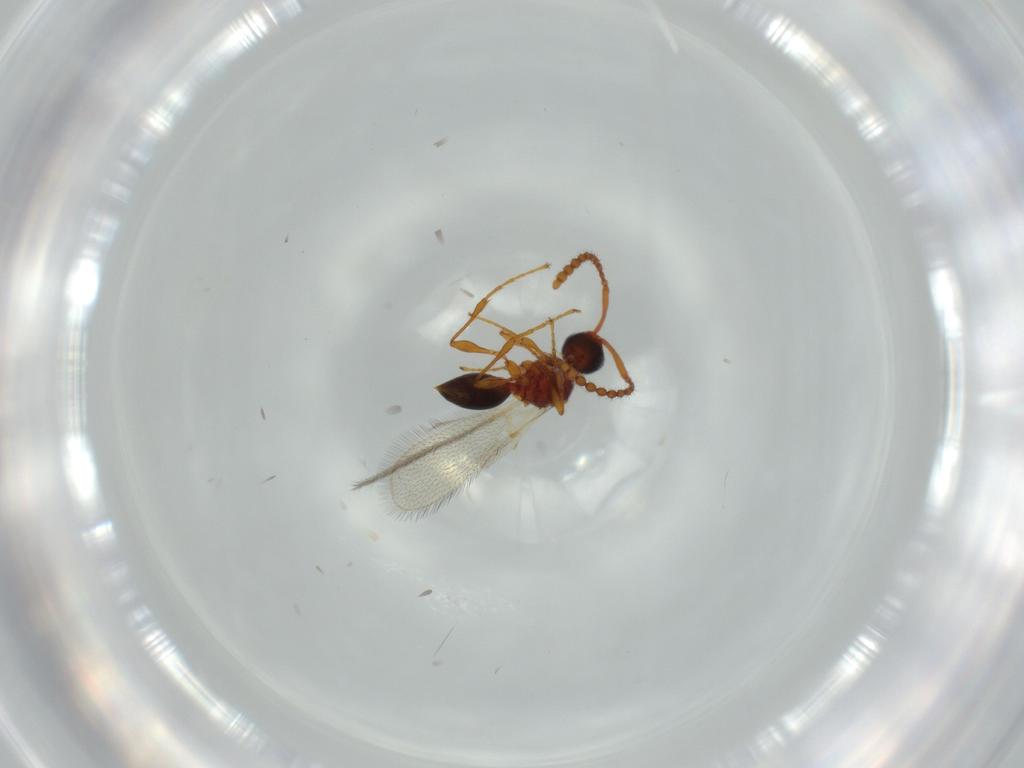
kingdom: Animalia
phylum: Arthropoda
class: Insecta
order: Hymenoptera
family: Diapriidae
